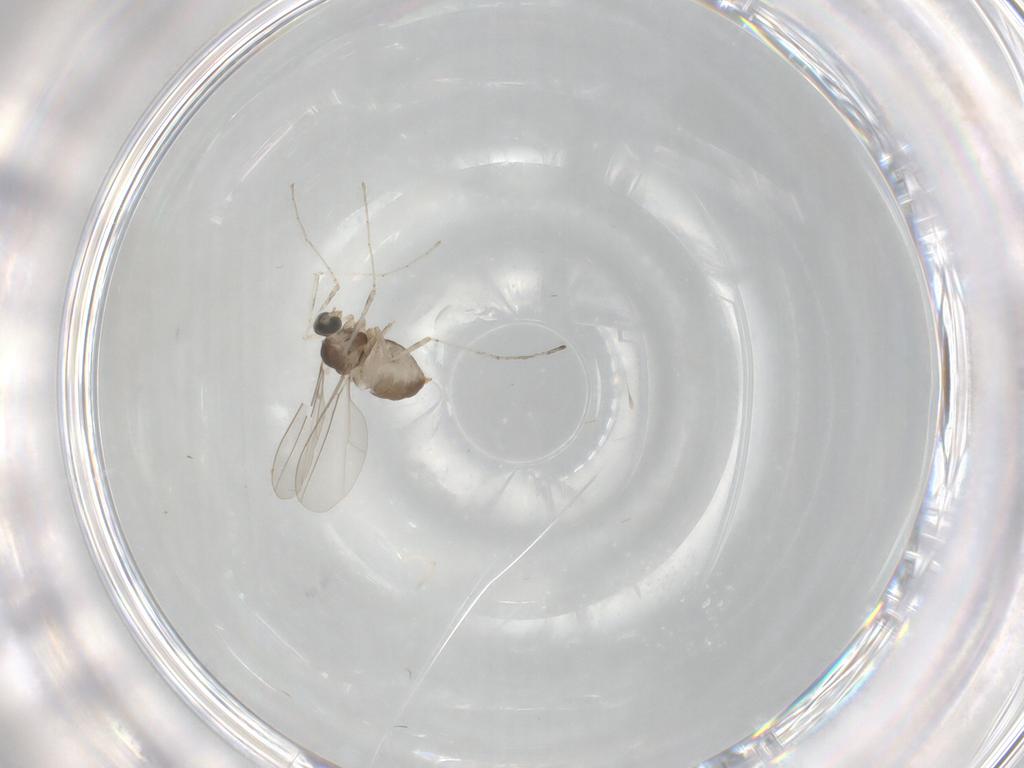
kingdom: Animalia
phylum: Arthropoda
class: Insecta
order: Diptera
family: Cecidomyiidae
